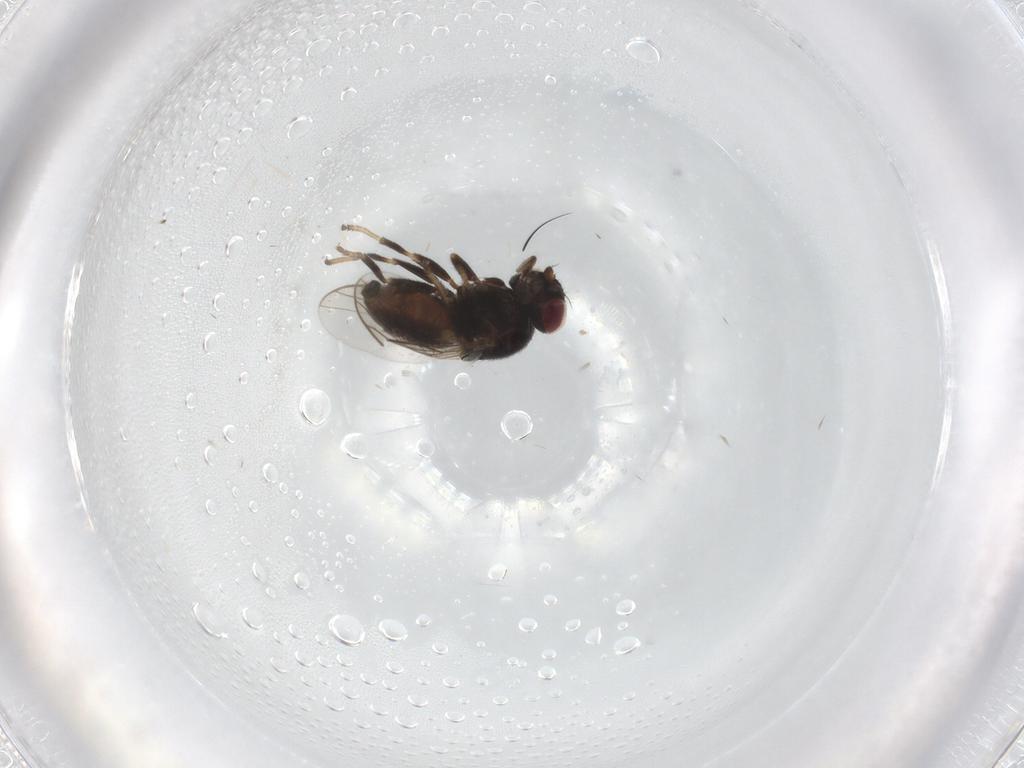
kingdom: Animalia
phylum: Arthropoda
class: Insecta
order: Diptera
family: Chloropidae
